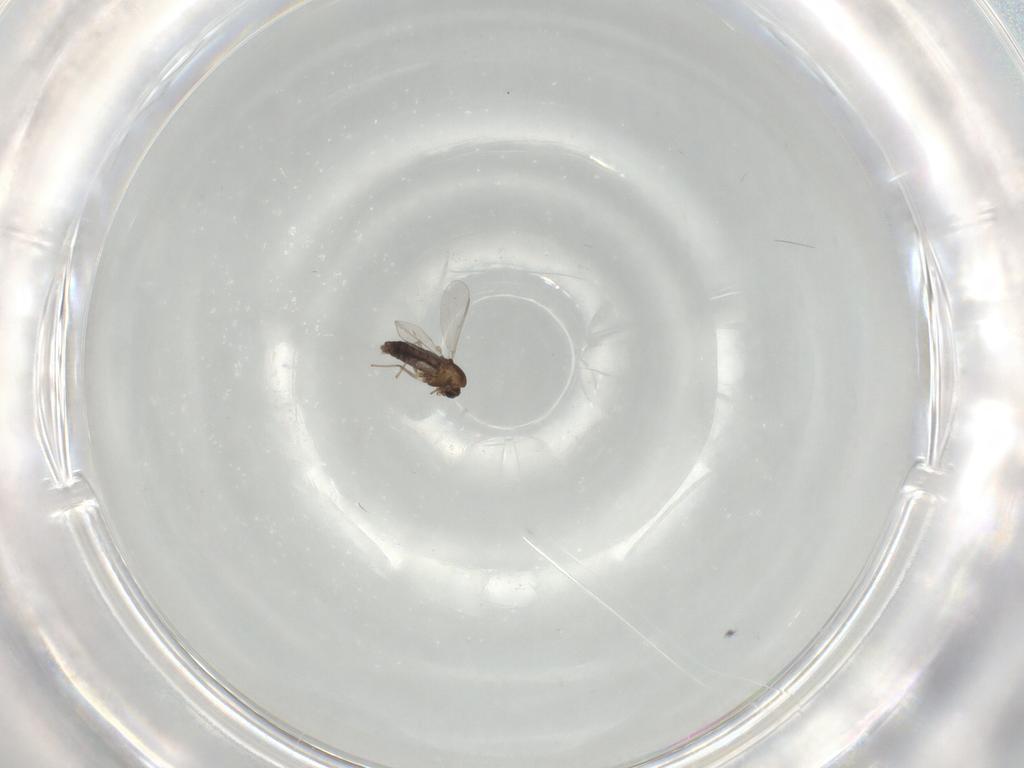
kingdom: Animalia
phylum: Arthropoda
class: Insecta
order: Diptera
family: Chironomidae
